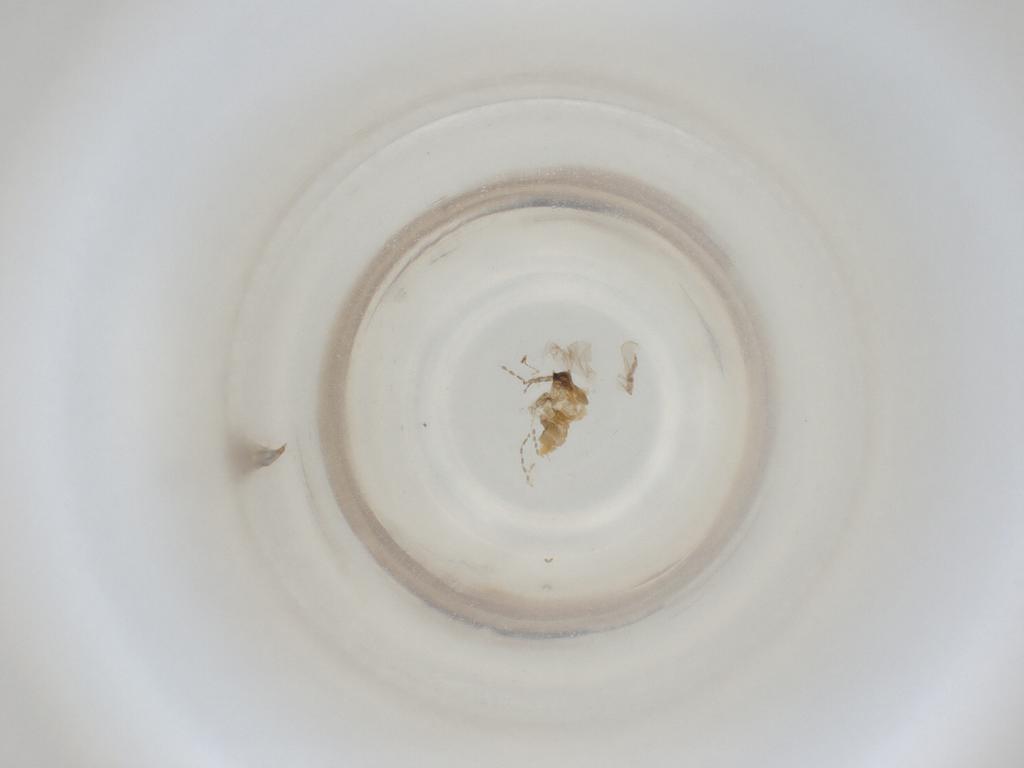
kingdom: Animalia
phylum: Arthropoda
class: Insecta
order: Diptera
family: Cecidomyiidae
